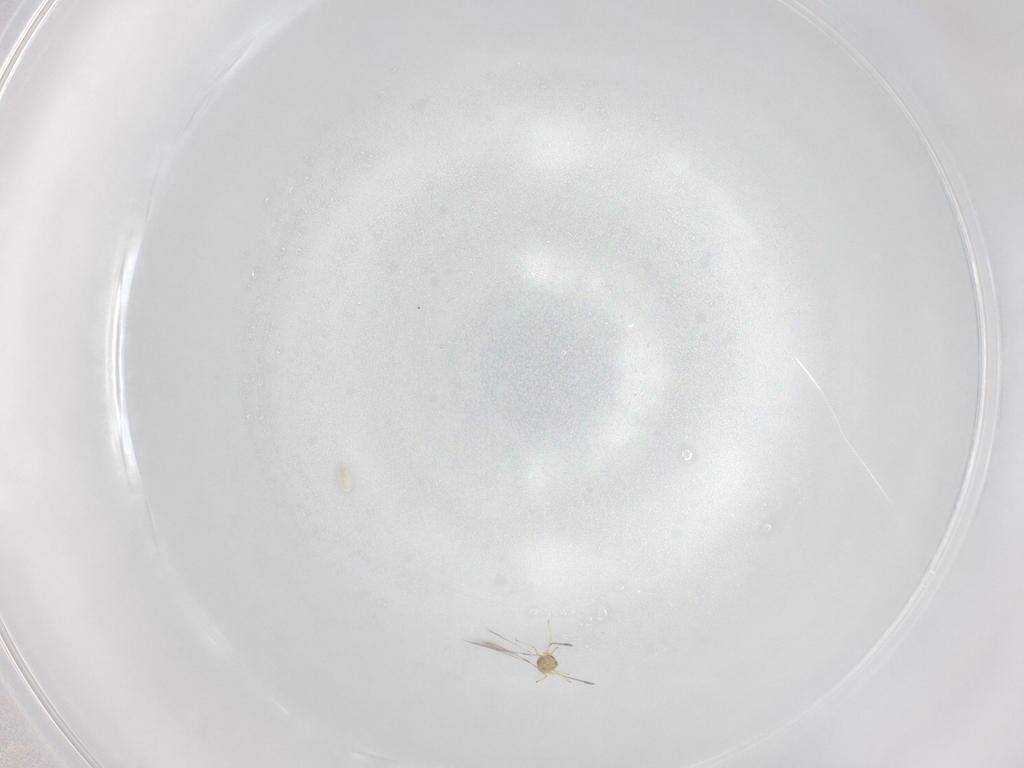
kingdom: Animalia
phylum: Arthropoda
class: Insecta
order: Hymenoptera
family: Platygastridae
